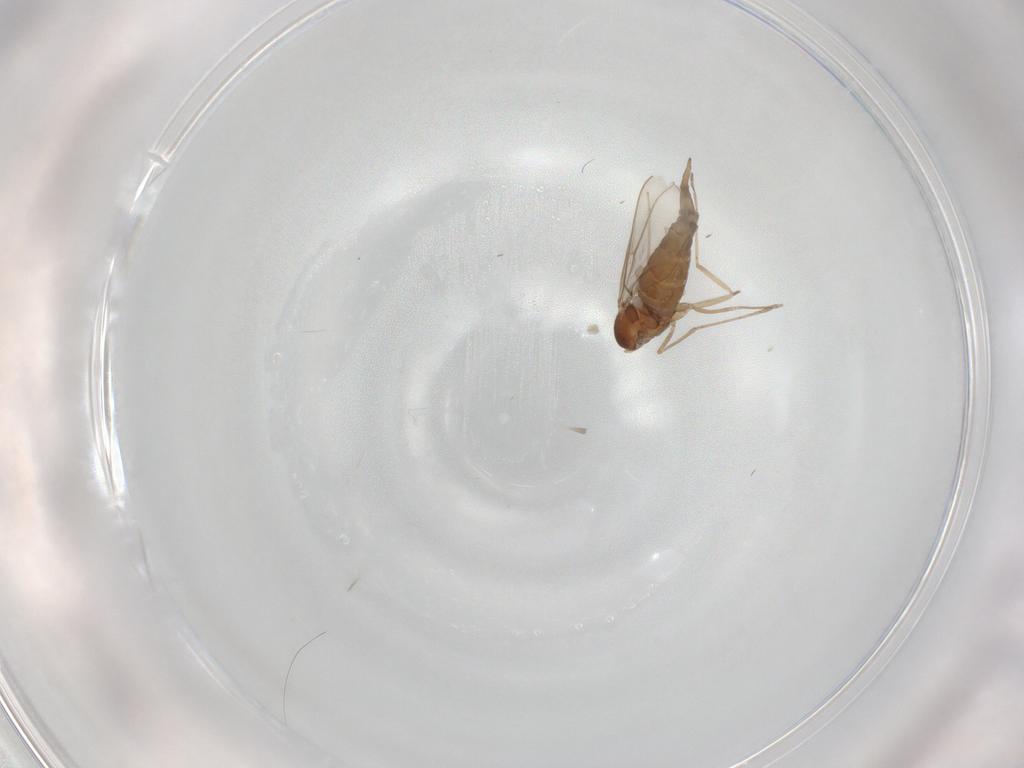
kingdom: Animalia
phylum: Arthropoda
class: Insecta
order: Diptera
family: Cecidomyiidae
